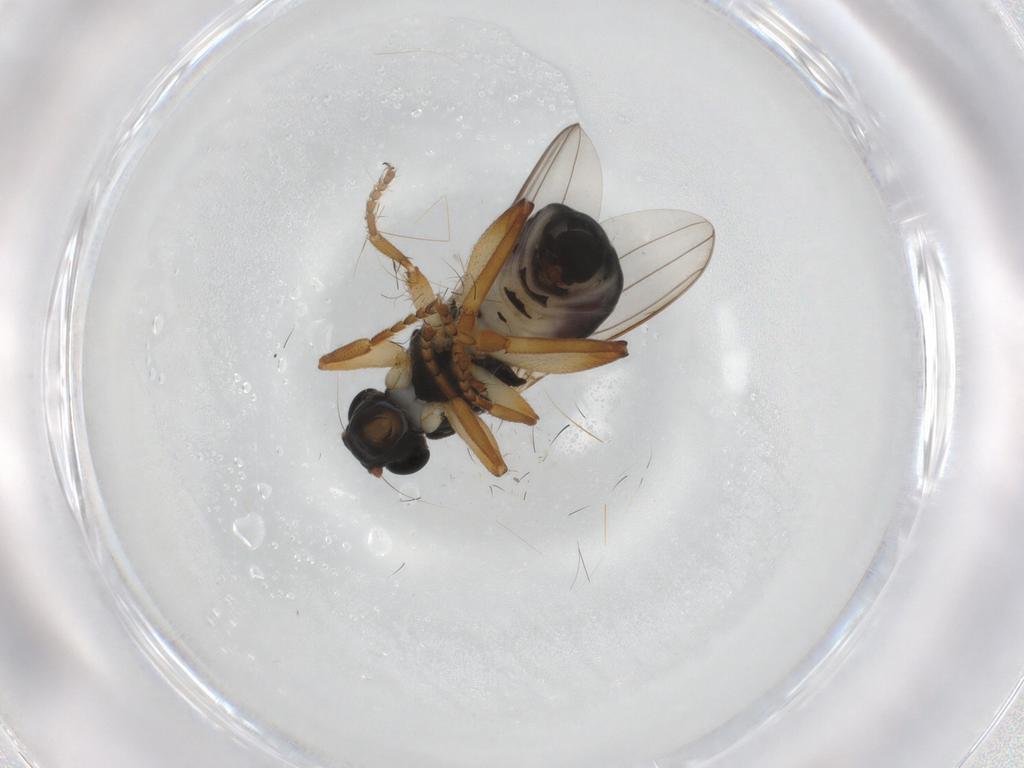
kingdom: Animalia
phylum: Arthropoda
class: Insecta
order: Diptera
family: Sphaeroceridae
